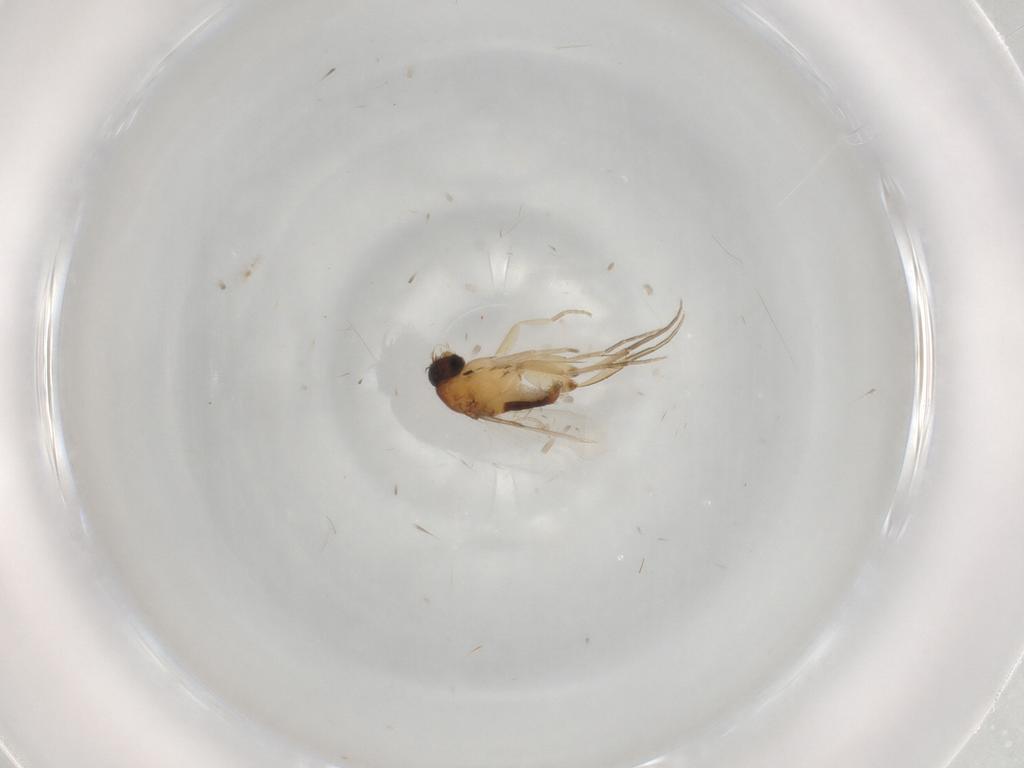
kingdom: Animalia
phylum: Arthropoda
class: Insecta
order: Diptera
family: Phoridae
